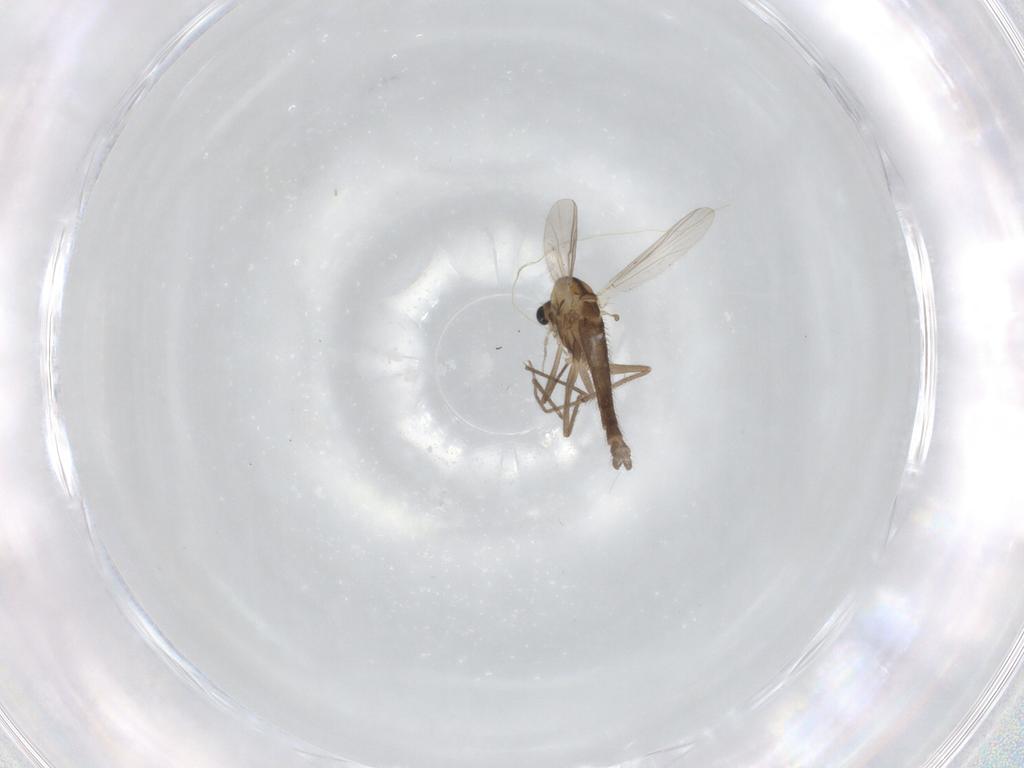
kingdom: Animalia
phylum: Arthropoda
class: Insecta
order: Diptera
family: Chironomidae
